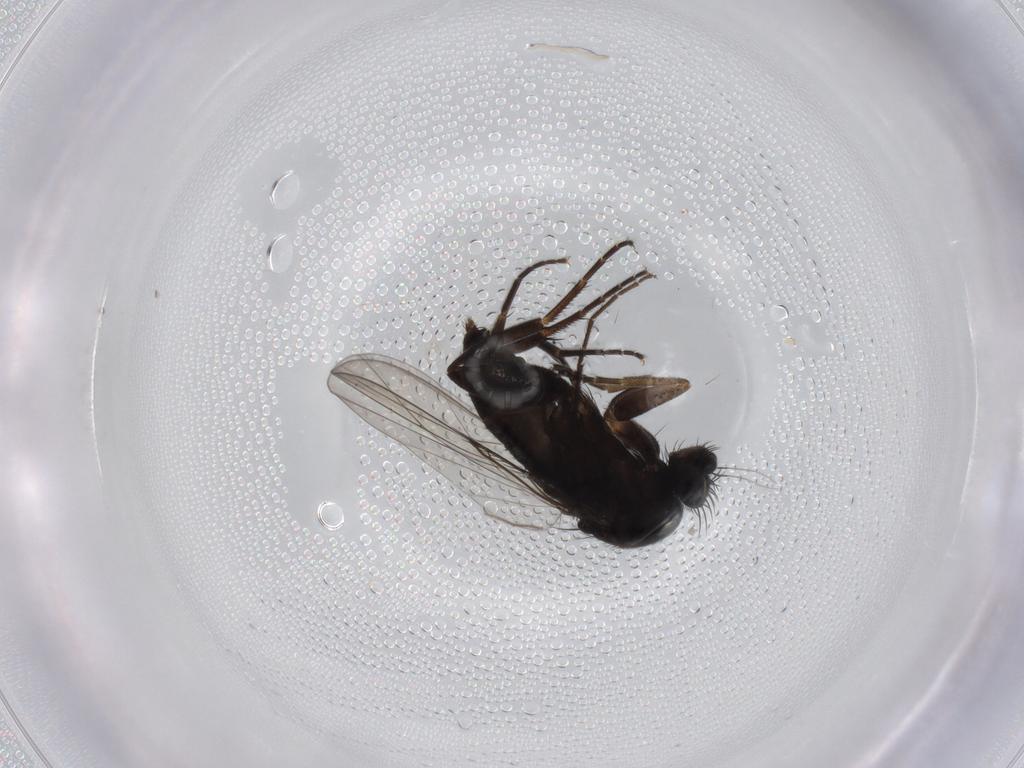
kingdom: Animalia
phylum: Arthropoda
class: Insecta
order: Diptera
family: Phoridae
